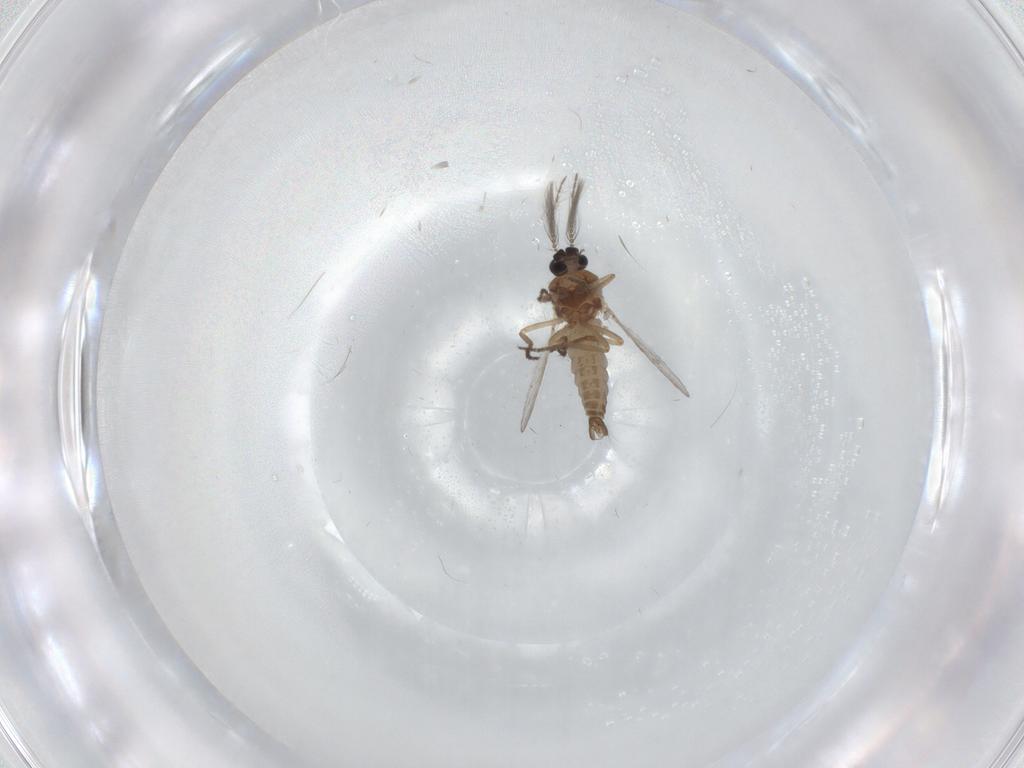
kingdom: Animalia
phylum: Arthropoda
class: Insecta
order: Diptera
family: Ceratopogonidae
